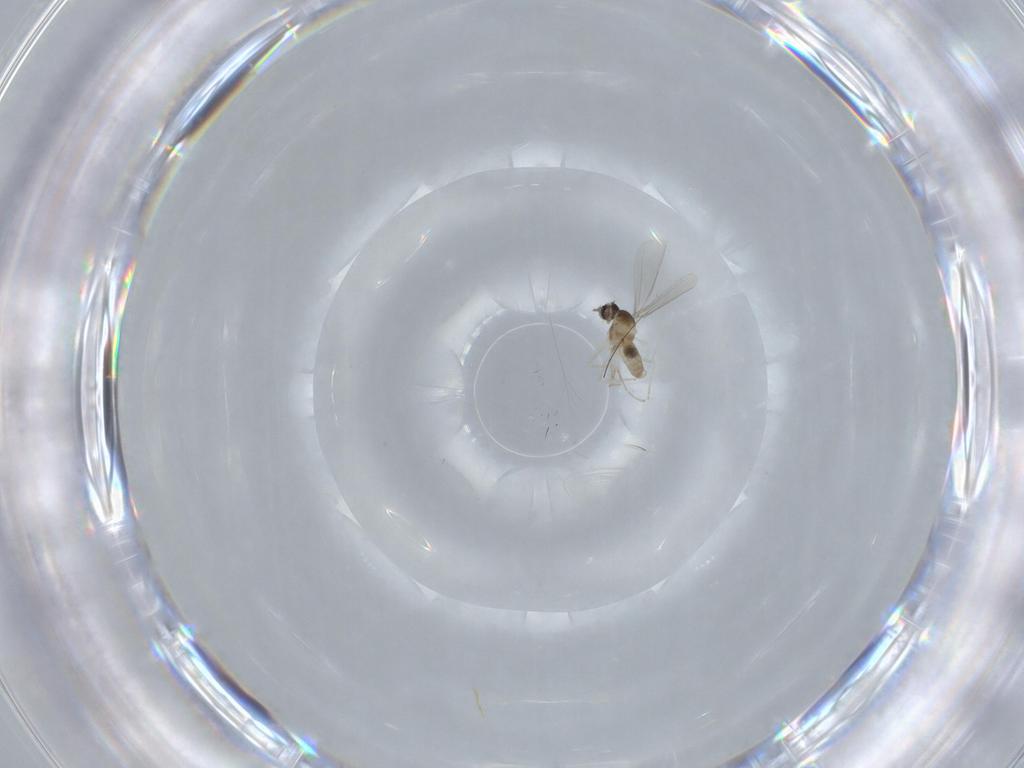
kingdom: Animalia
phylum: Arthropoda
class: Insecta
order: Diptera
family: Cecidomyiidae
